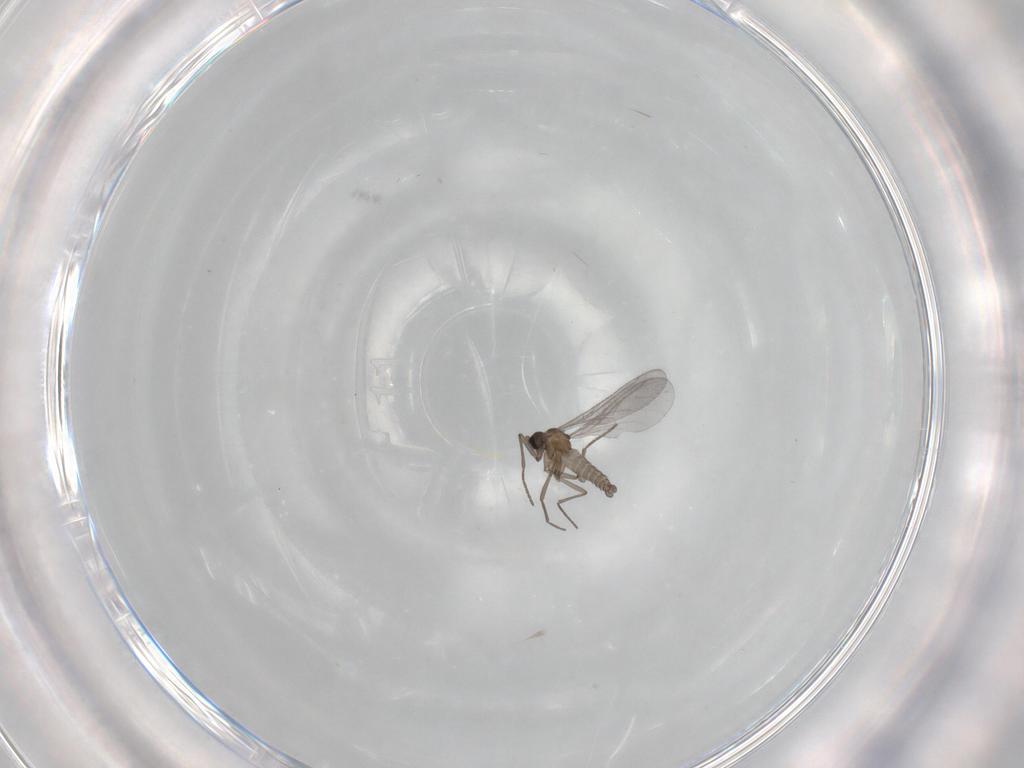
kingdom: Animalia
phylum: Arthropoda
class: Insecta
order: Diptera
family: Sciaridae
